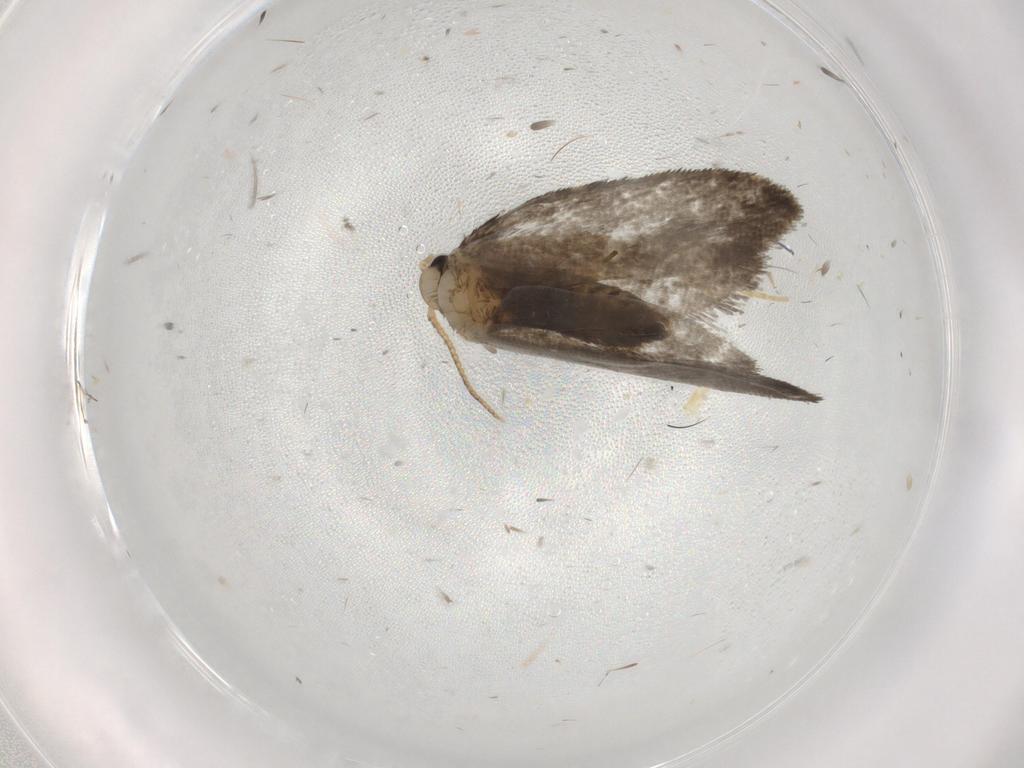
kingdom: Animalia
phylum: Arthropoda
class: Insecta
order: Lepidoptera
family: Psychidae
